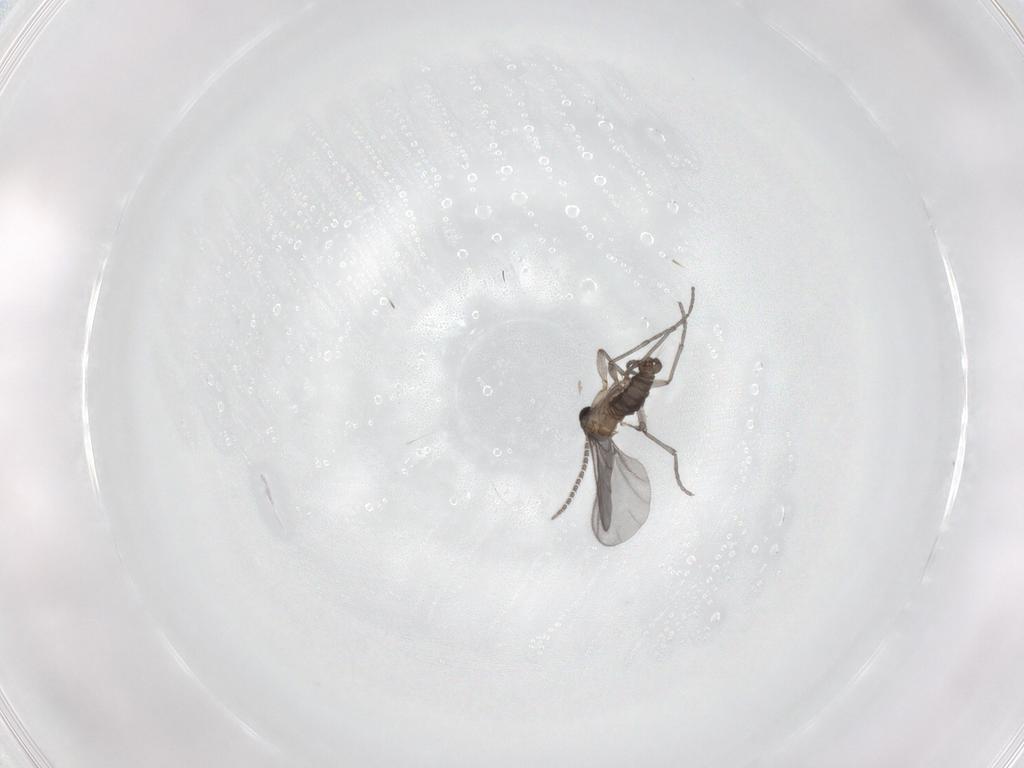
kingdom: Animalia
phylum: Arthropoda
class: Insecta
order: Diptera
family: Sciaridae
